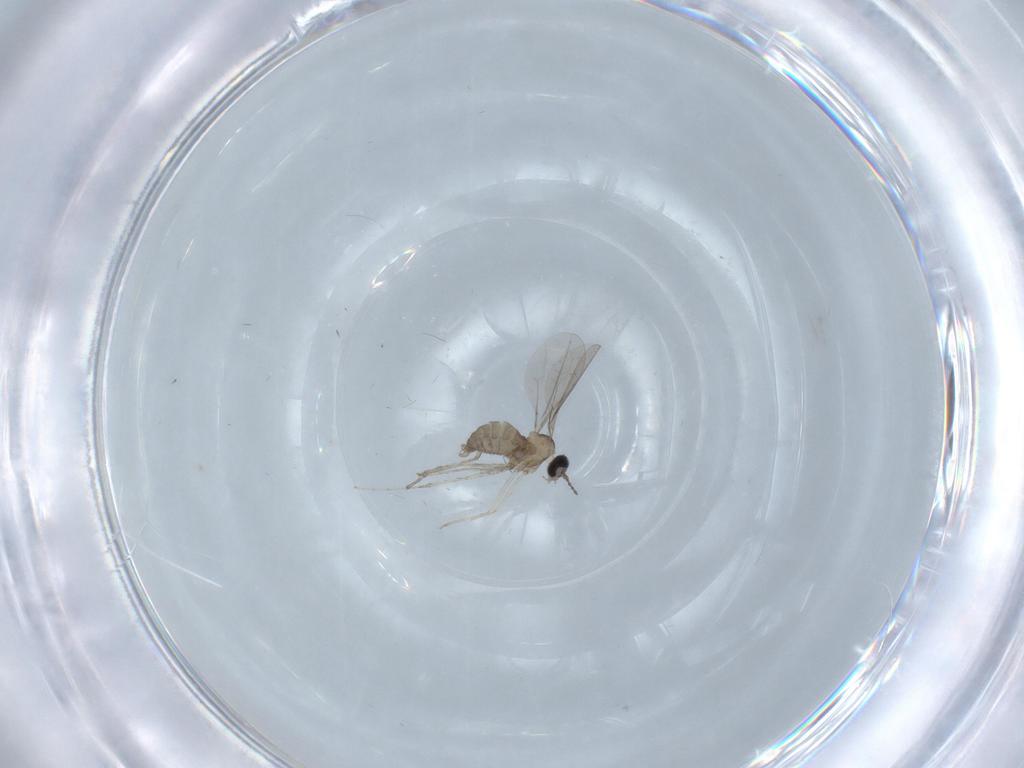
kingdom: Animalia
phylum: Arthropoda
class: Insecta
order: Diptera
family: Cecidomyiidae
